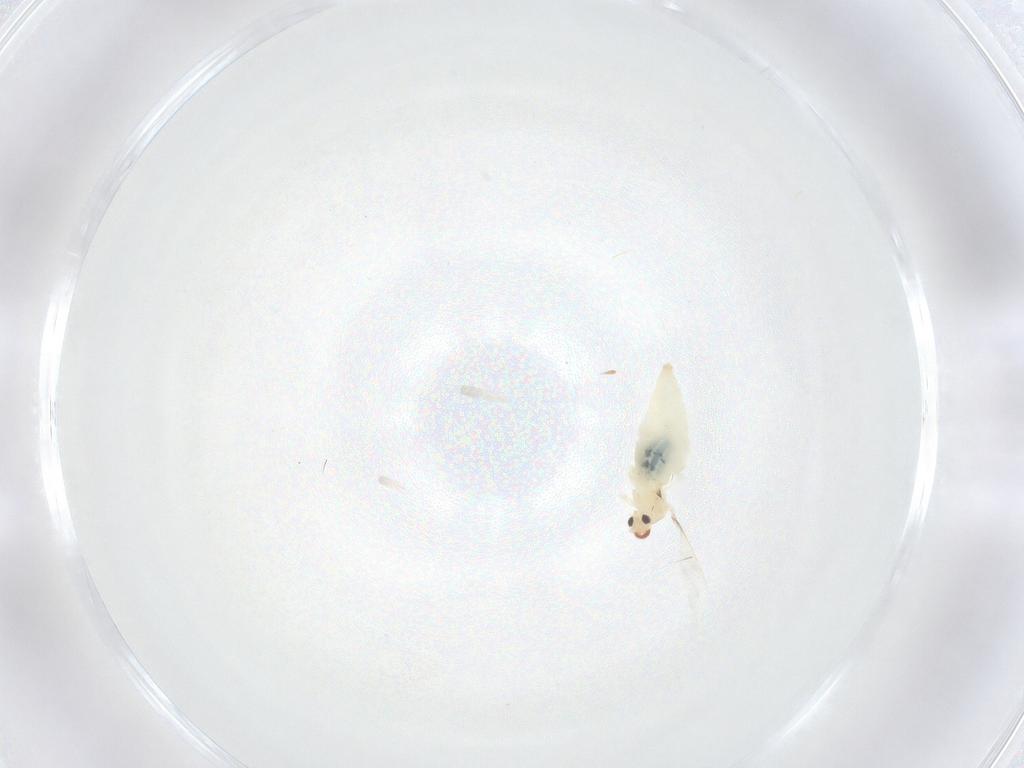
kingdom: Animalia
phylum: Arthropoda
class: Insecta
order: Diptera
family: Cecidomyiidae
